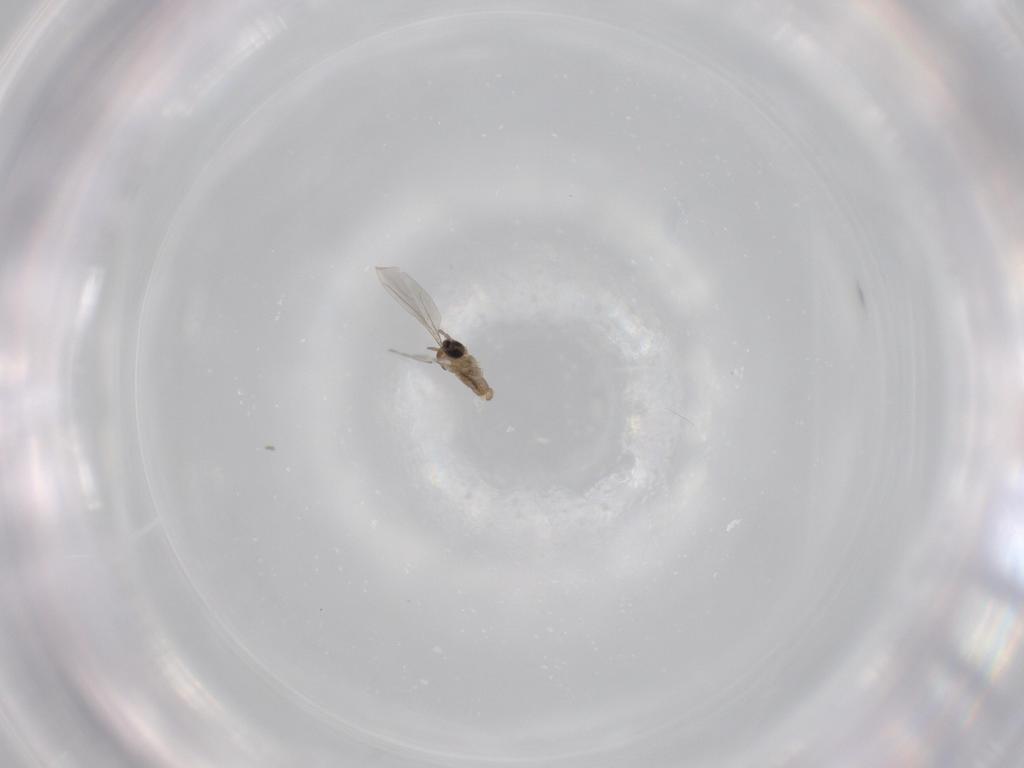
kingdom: Animalia
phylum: Arthropoda
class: Insecta
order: Diptera
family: Cecidomyiidae
